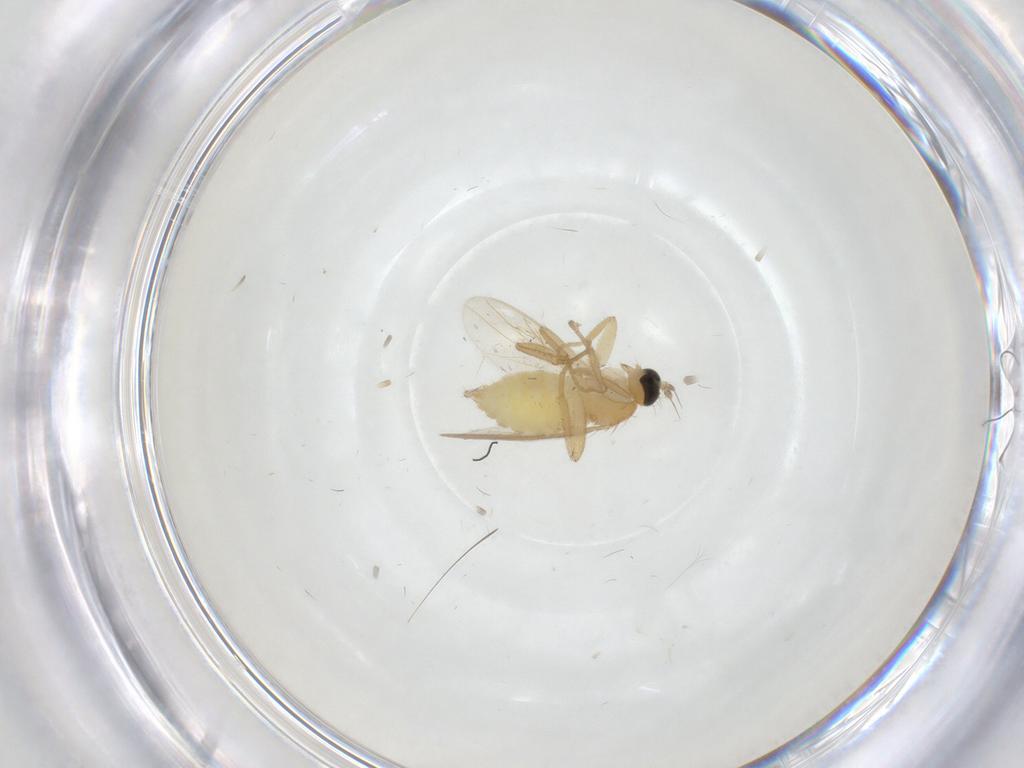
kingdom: Animalia
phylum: Arthropoda
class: Insecta
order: Diptera
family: Hybotidae
